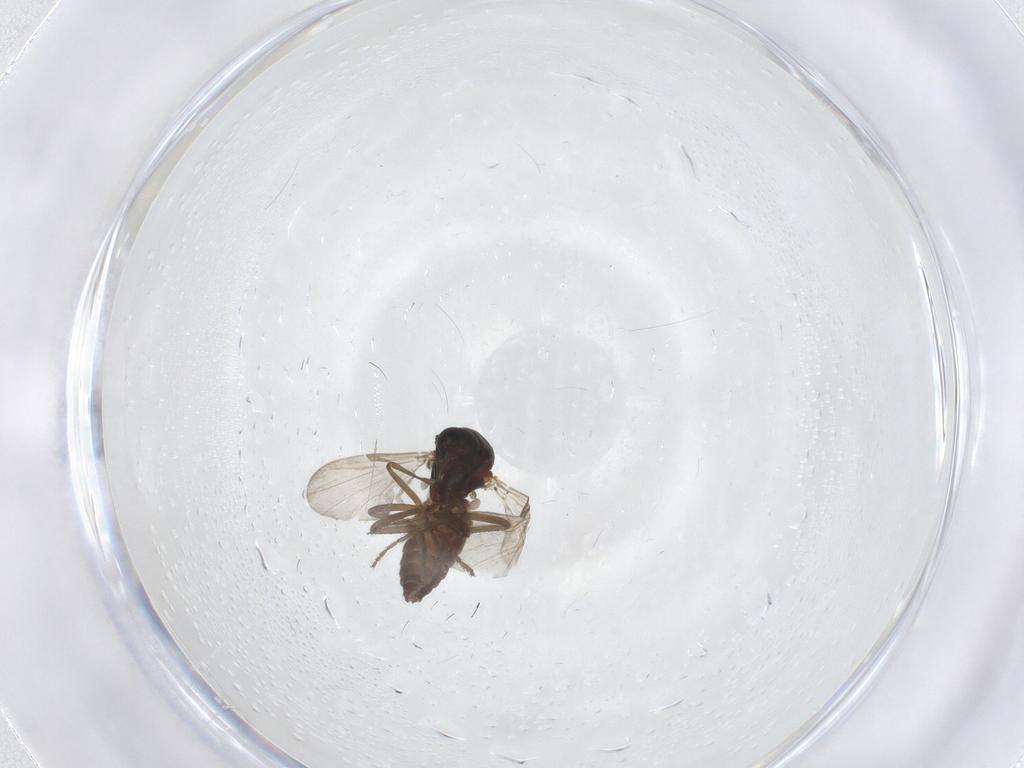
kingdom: Animalia
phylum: Arthropoda
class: Insecta
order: Diptera
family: Ceratopogonidae
